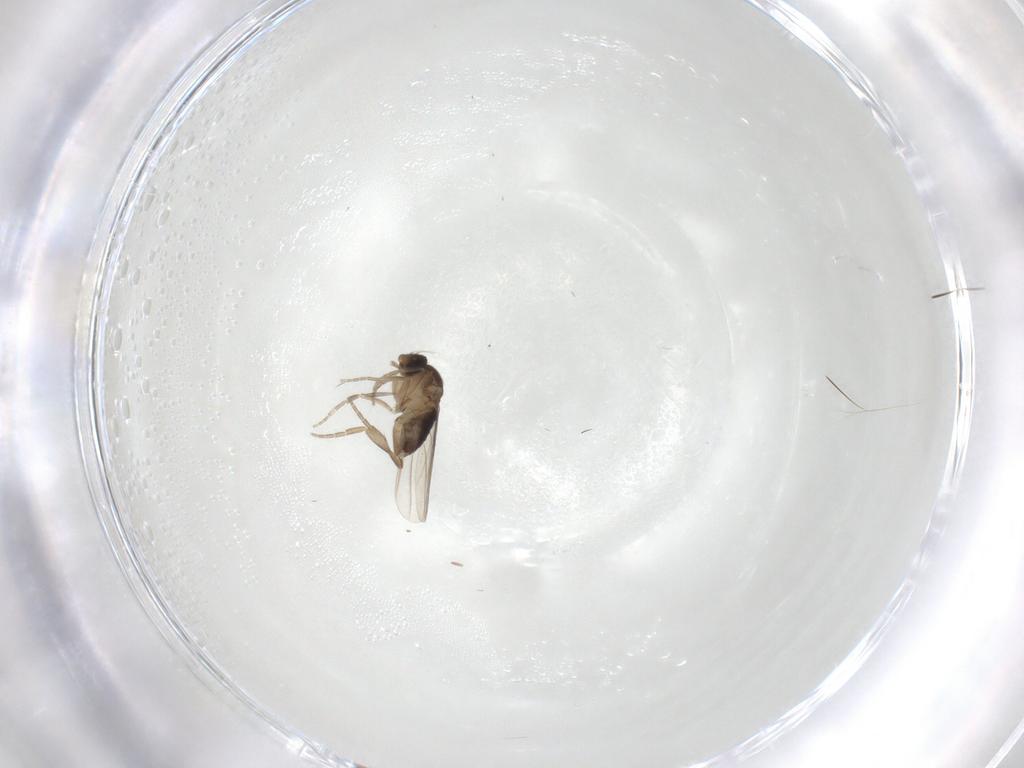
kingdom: Animalia
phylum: Arthropoda
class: Insecta
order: Diptera
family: Phoridae
